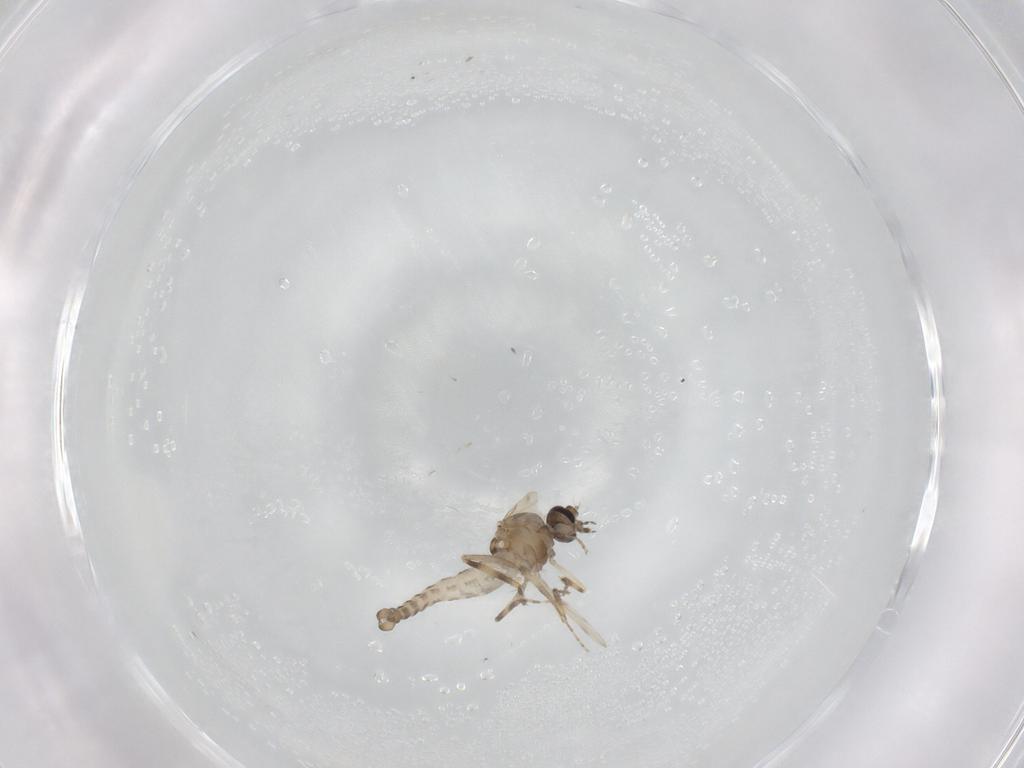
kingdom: Animalia
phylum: Arthropoda
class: Insecta
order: Diptera
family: Ceratopogonidae
